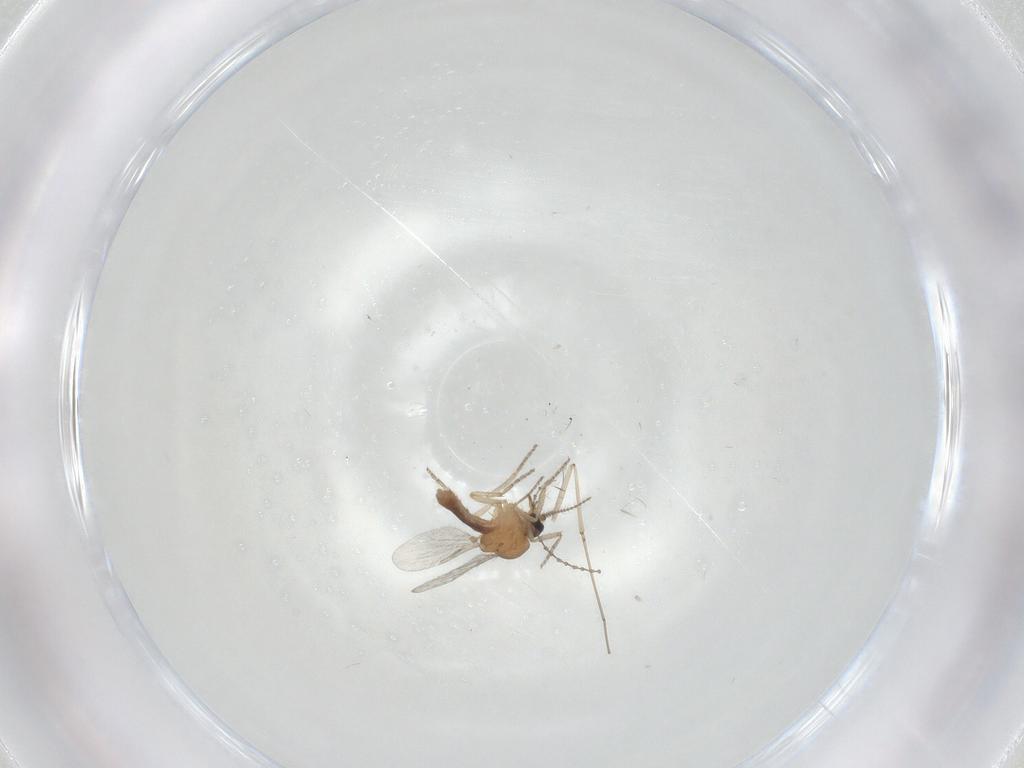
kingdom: Animalia
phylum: Arthropoda
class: Insecta
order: Diptera
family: Ceratopogonidae
